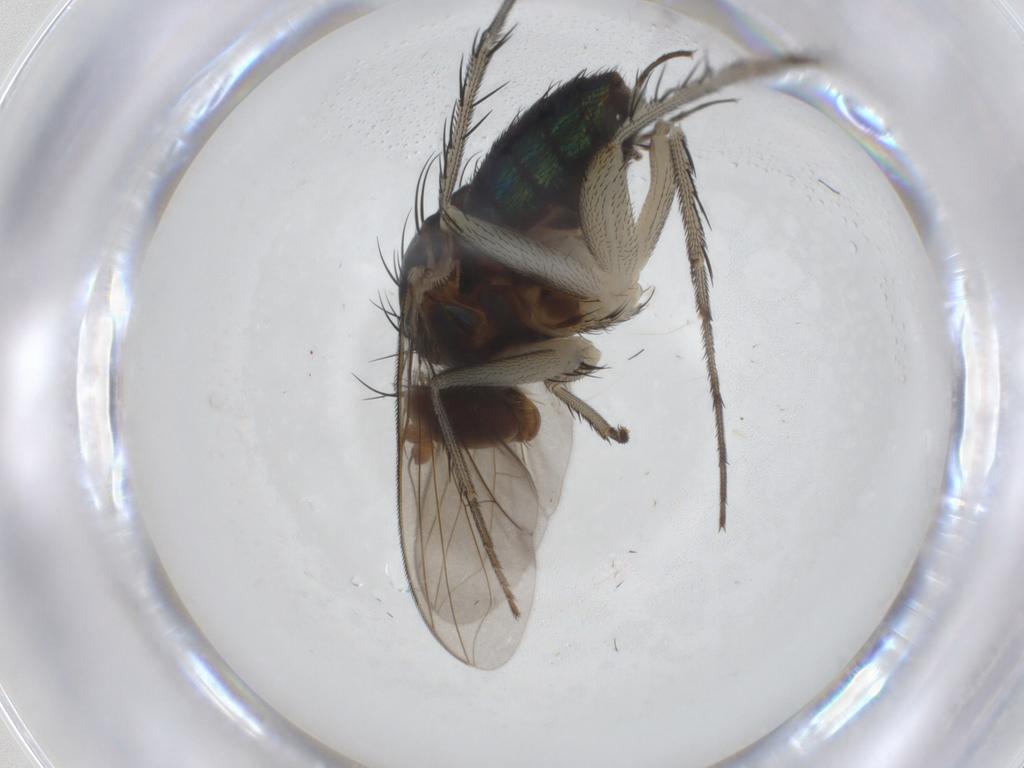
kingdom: Animalia
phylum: Arthropoda
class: Insecta
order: Diptera
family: Dolichopodidae
